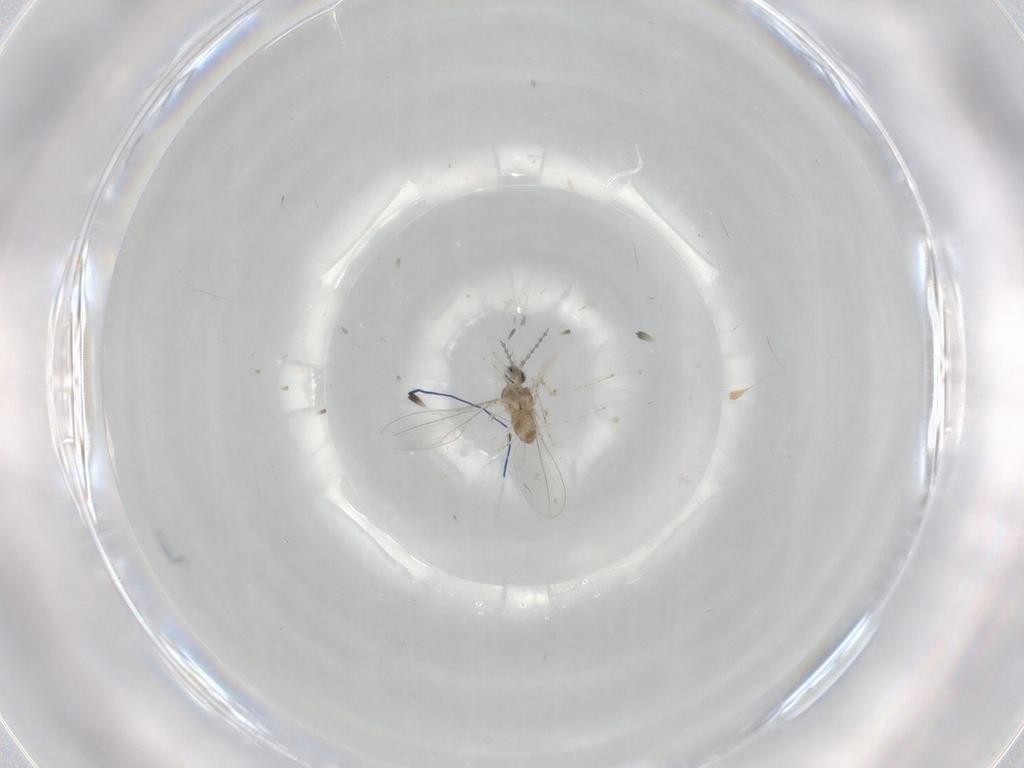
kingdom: Animalia
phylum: Arthropoda
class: Insecta
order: Diptera
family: Cecidomyiidae
